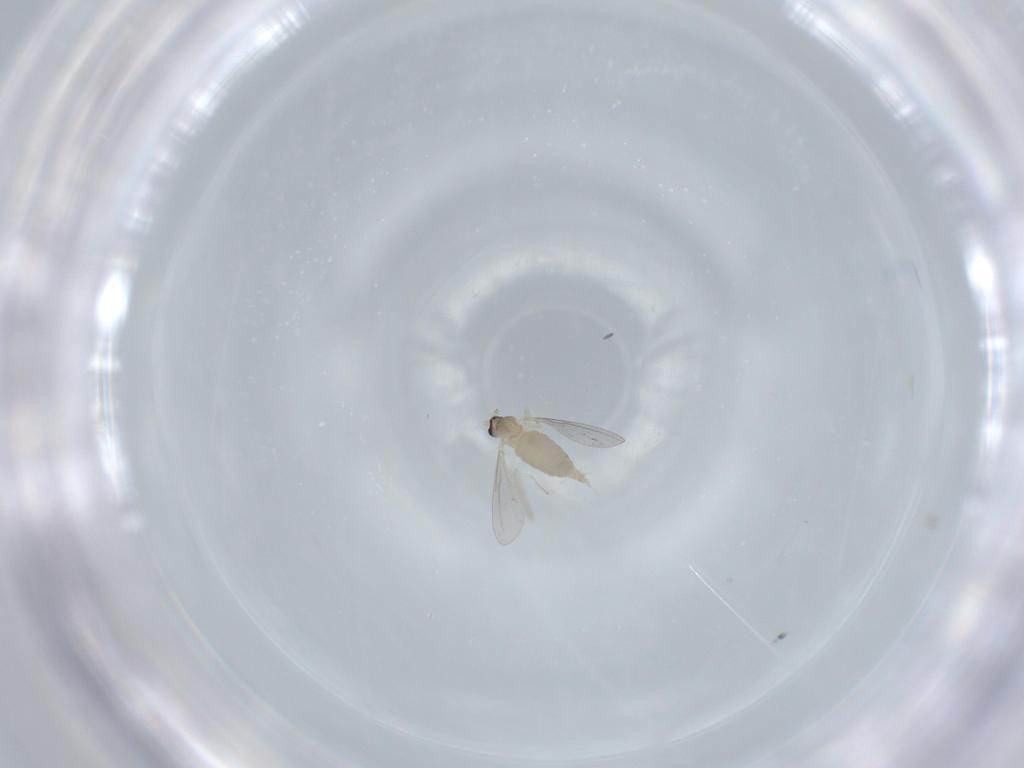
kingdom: Animalia
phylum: Arthropoda
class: Insecta
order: Diptera
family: Cecidomyiidae
